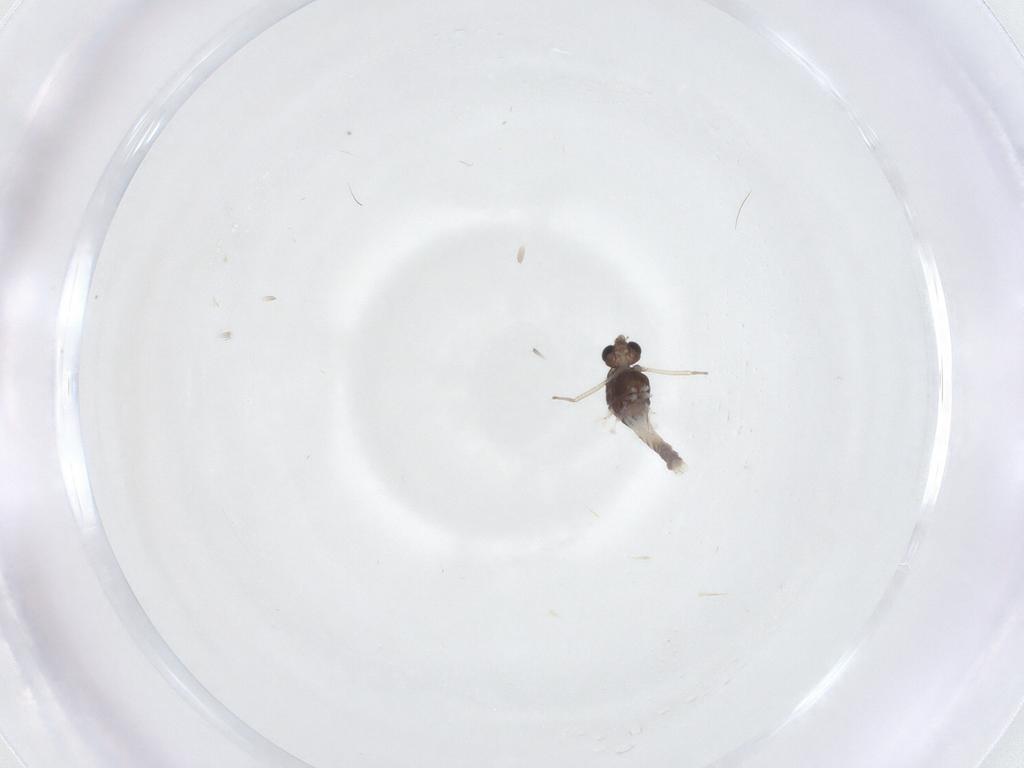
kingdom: Animalia
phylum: Arthropoda
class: Insecta
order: Diptera
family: Chironomidae
